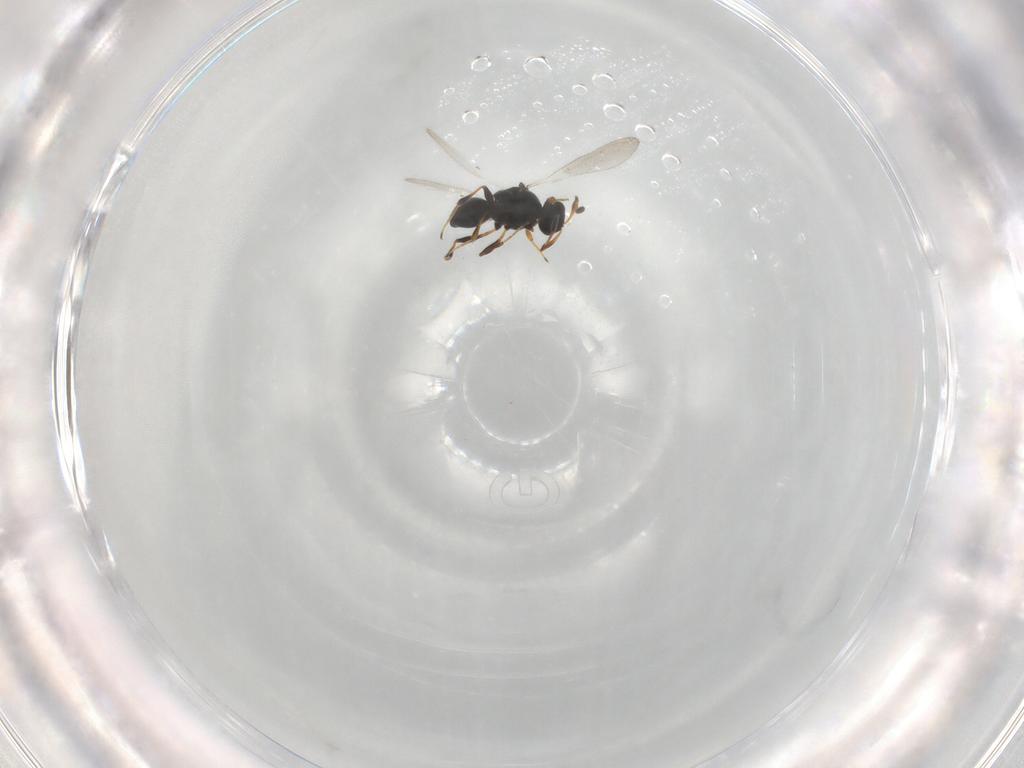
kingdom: Animalia
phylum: Arthropoda
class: Insecta
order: Hymenoptera
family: Platygastridae
